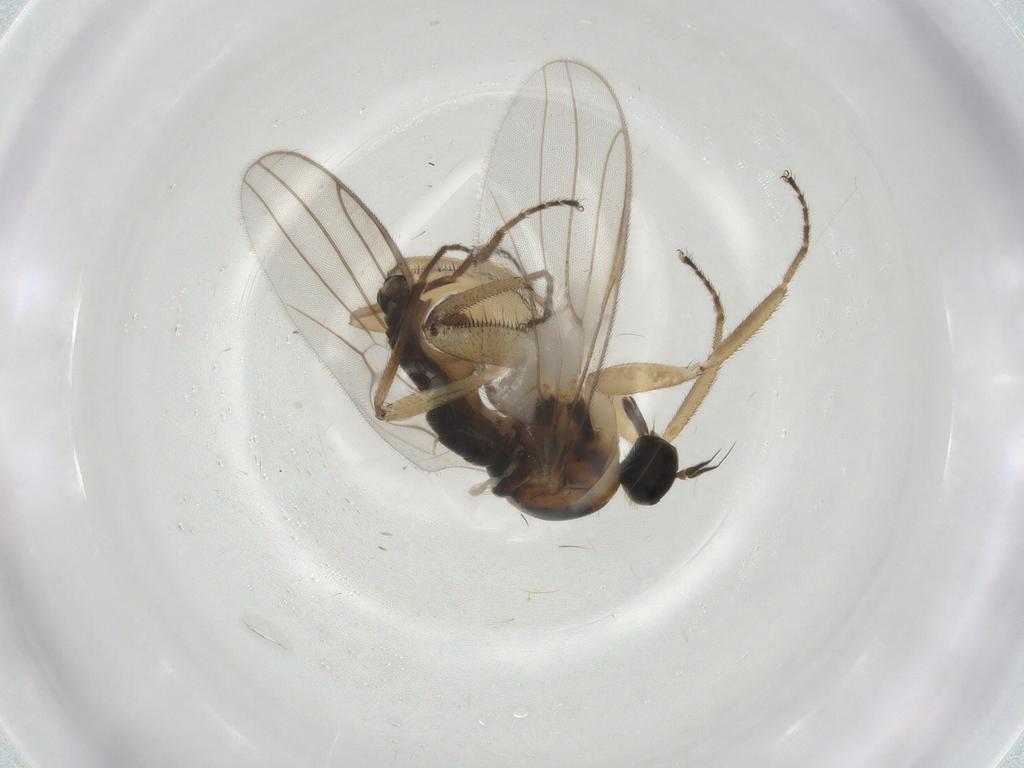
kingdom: Animalia
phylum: Arthropoda
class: Insecta
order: Diptera
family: Hybotidae
